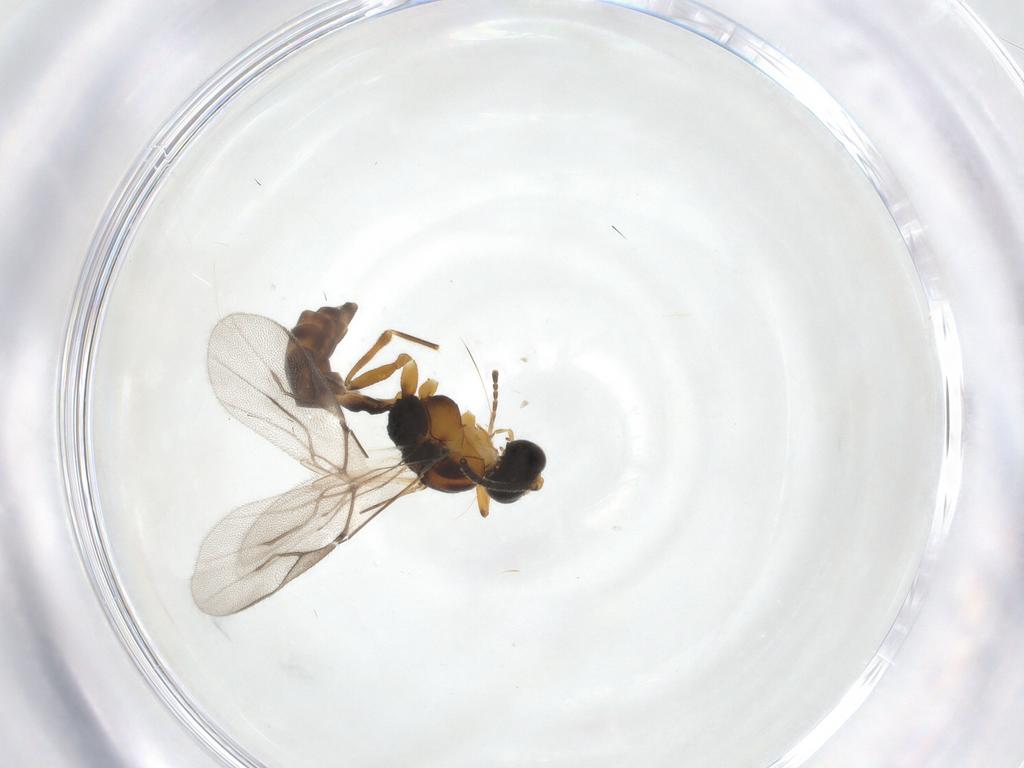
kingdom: Animalia
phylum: Arthropoda
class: Insecta
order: Hymenoptera
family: Braconidae
